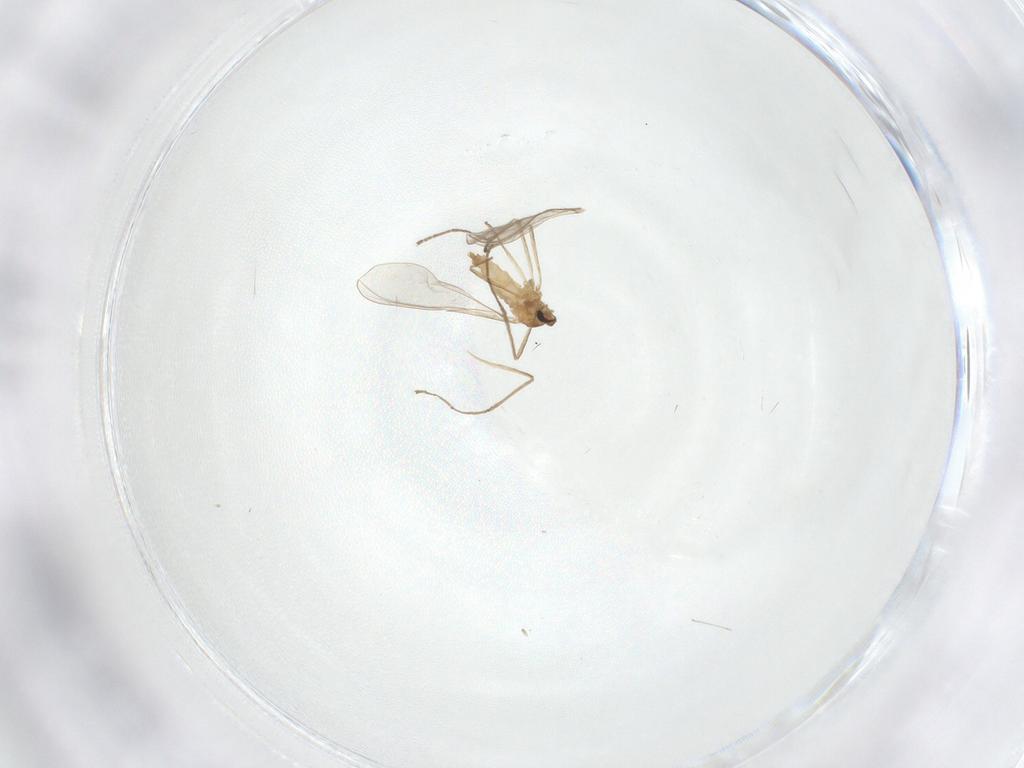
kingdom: Animalia
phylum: Arthropoda
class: Insecta
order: Diptera
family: Cecidomyiidae
